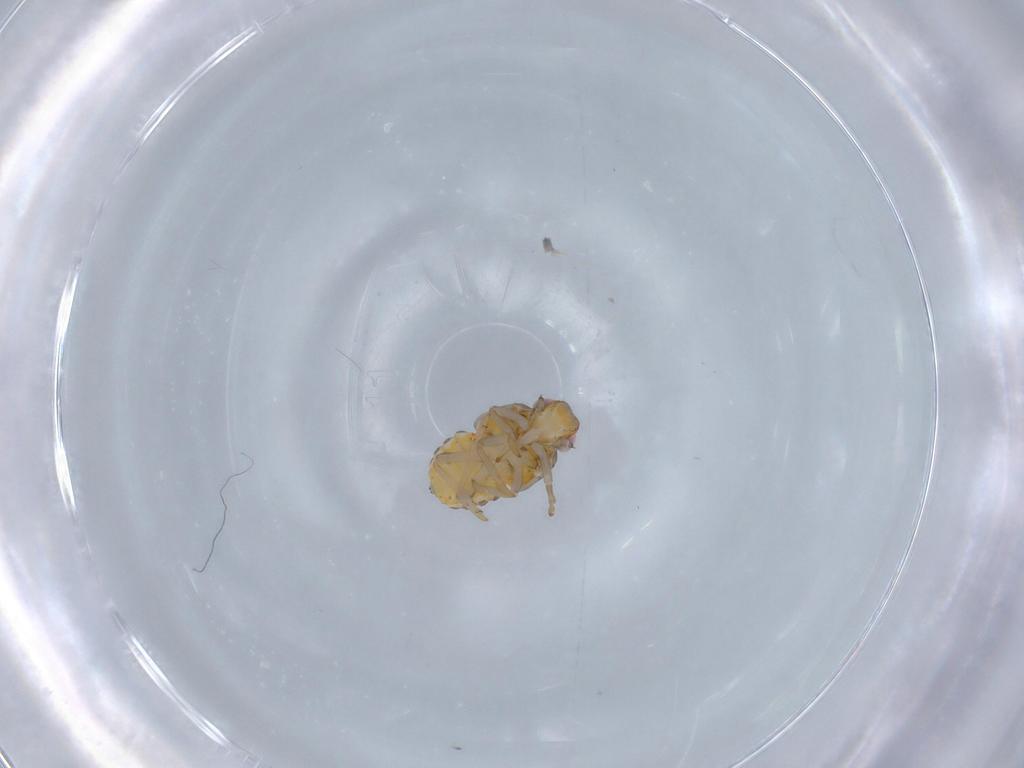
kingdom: Animalia
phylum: Arthropoda
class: Insecta
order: Hemiptera
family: Issidae
